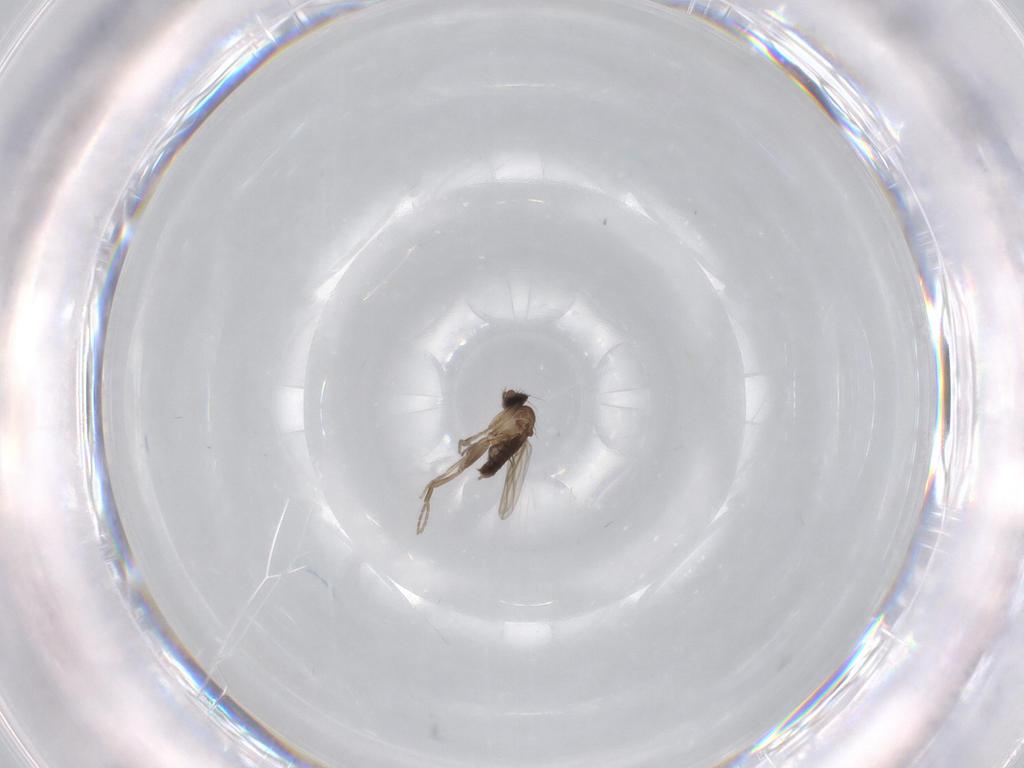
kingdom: Animalia
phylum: Arthropoda
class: Insecta
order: Diptera
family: Phoridae
